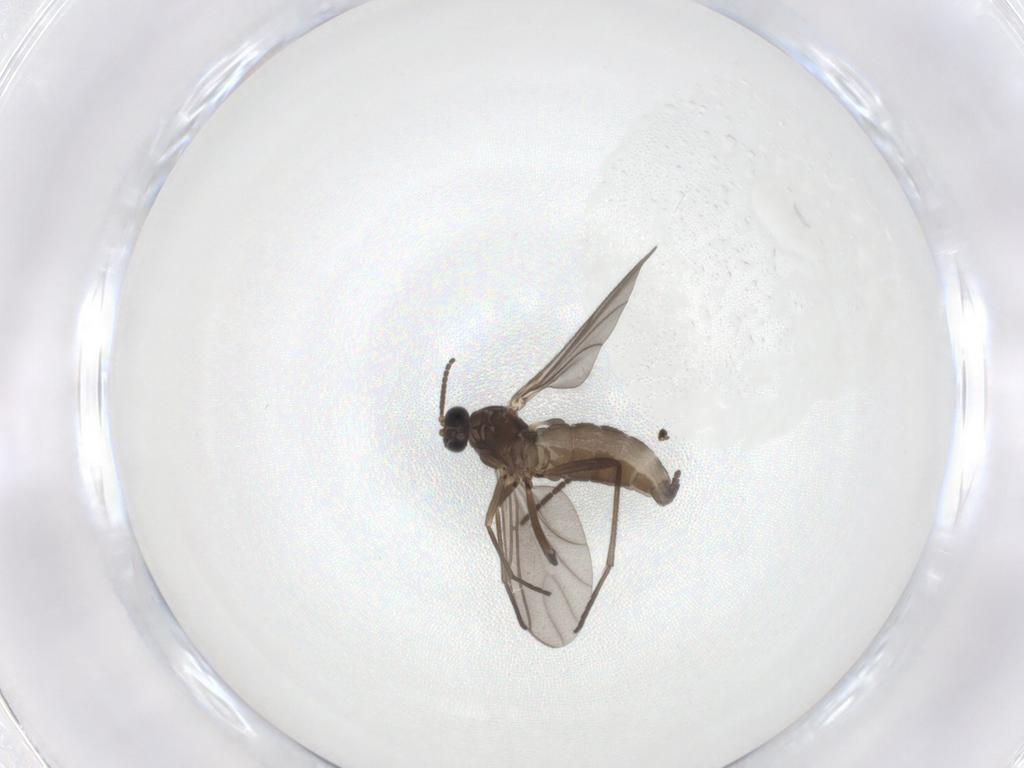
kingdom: Animalia
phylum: Arthropoda
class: Insecta
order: Diptera
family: Sciaridae
